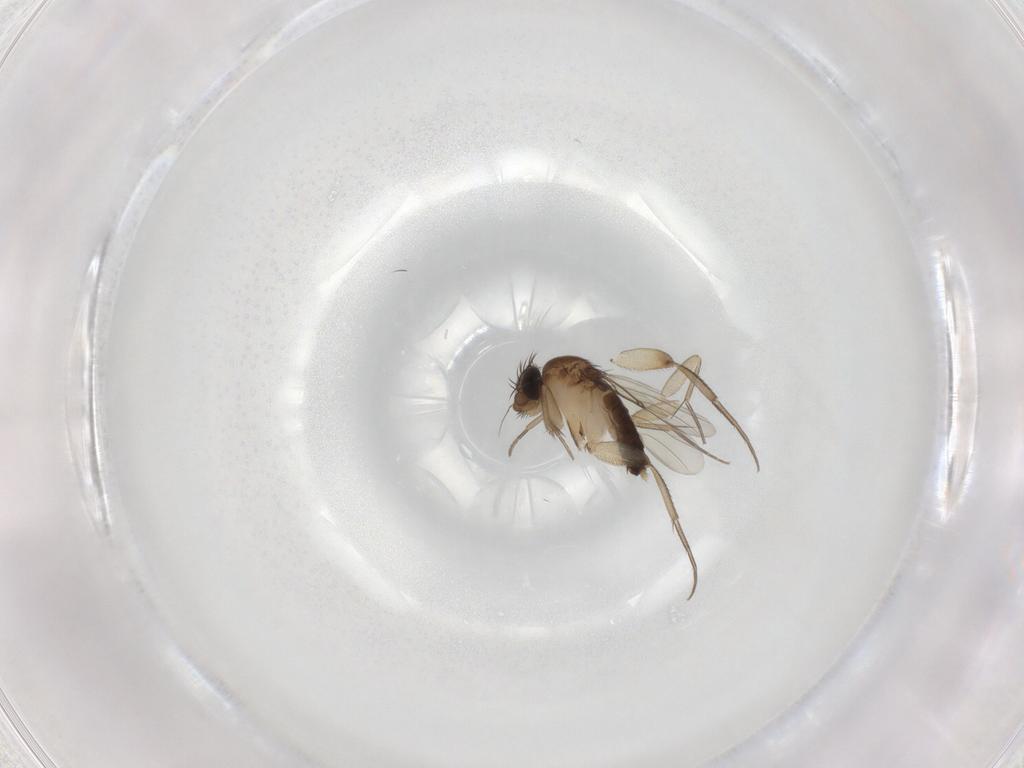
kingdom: Animalia
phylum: Arthropoda
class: Insecta
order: Diptera
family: Phoridae
